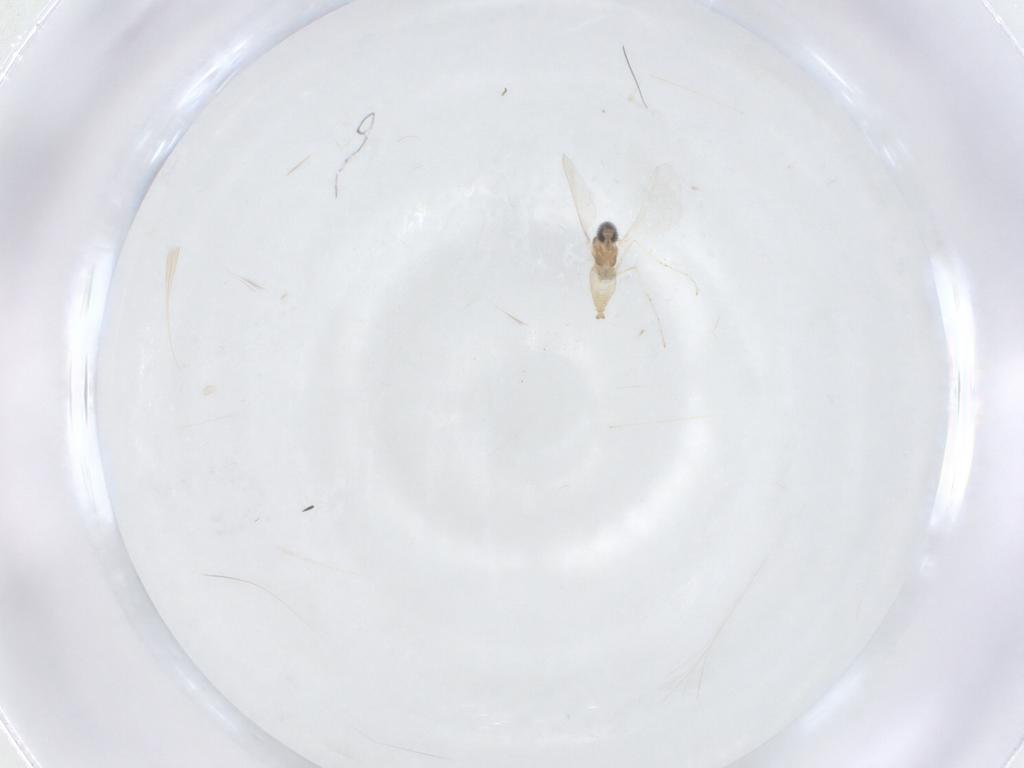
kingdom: Animalia
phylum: Arthropoda
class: Insecta
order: Diptera
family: Cecidomyiidae
